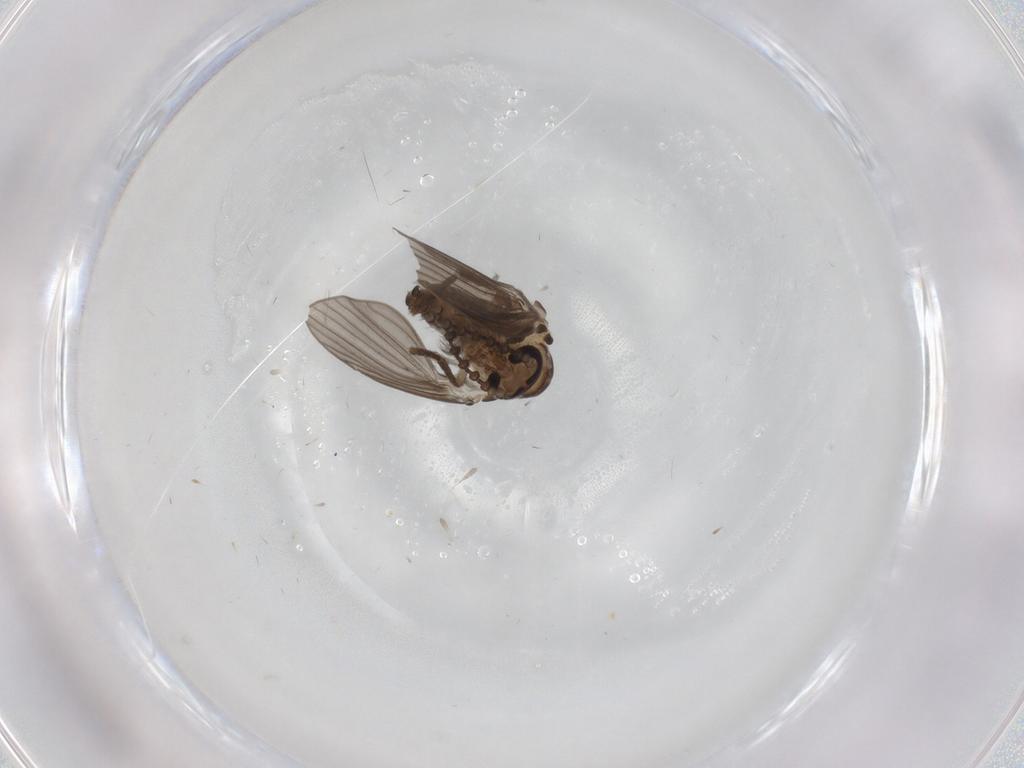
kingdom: Animalia
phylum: Arthropoda
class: Insecta
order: Diptera
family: Psychodidae
